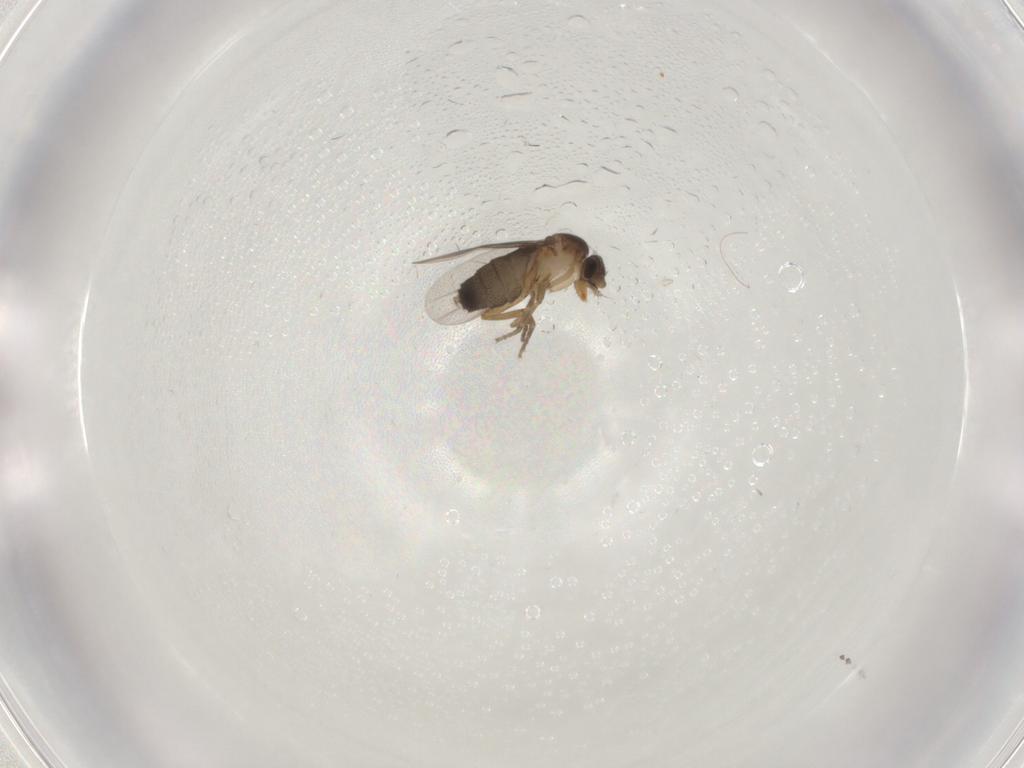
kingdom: Animalia
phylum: Arthropoda
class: Insecta
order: Diptera
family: Phoridae
